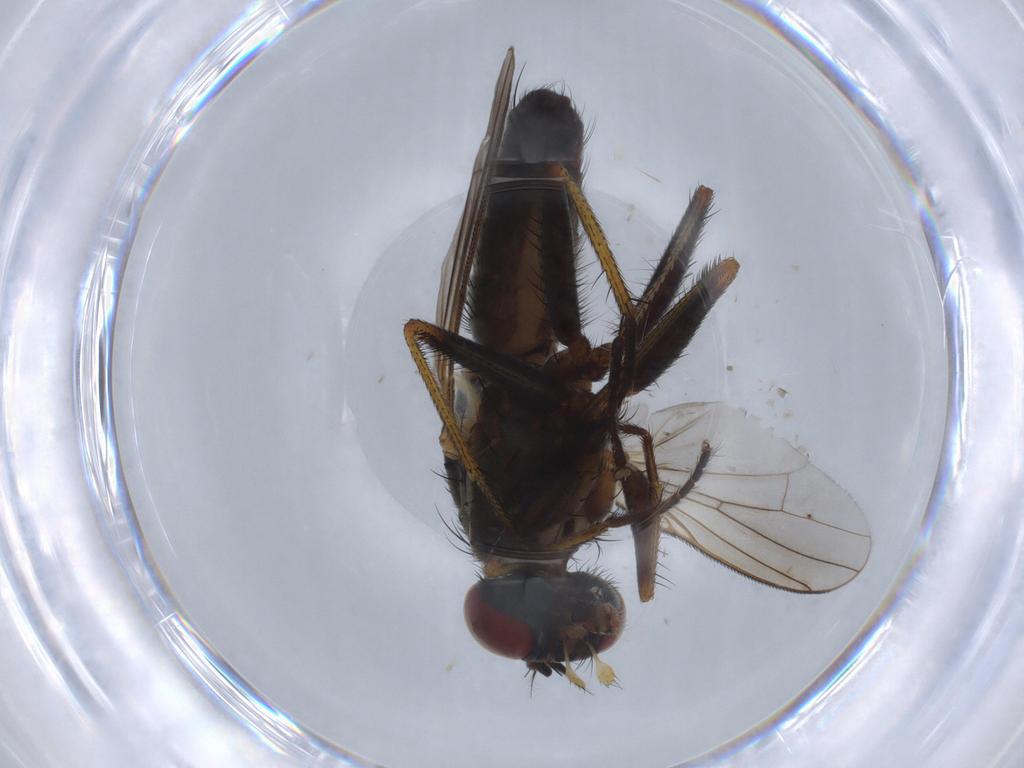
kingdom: Animalia
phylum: Arthropoda
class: Insecta
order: Diptera
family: Muscidae
